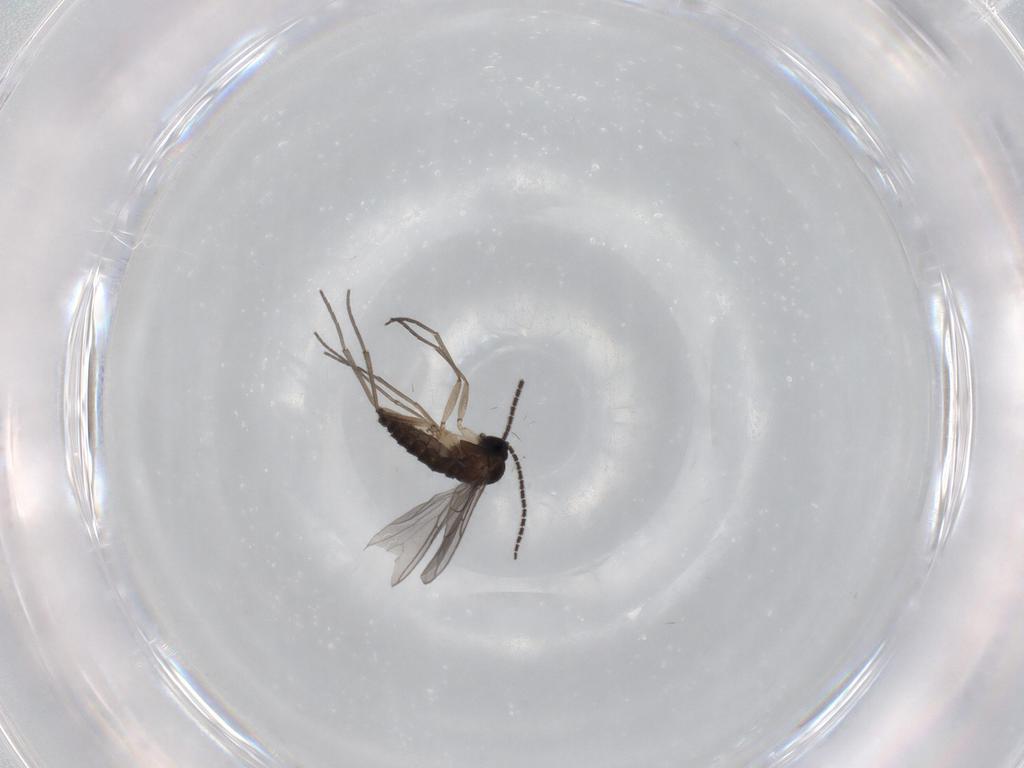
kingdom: Animalia
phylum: Arthropoda
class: Insecta
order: Diptera
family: Sciaridae
